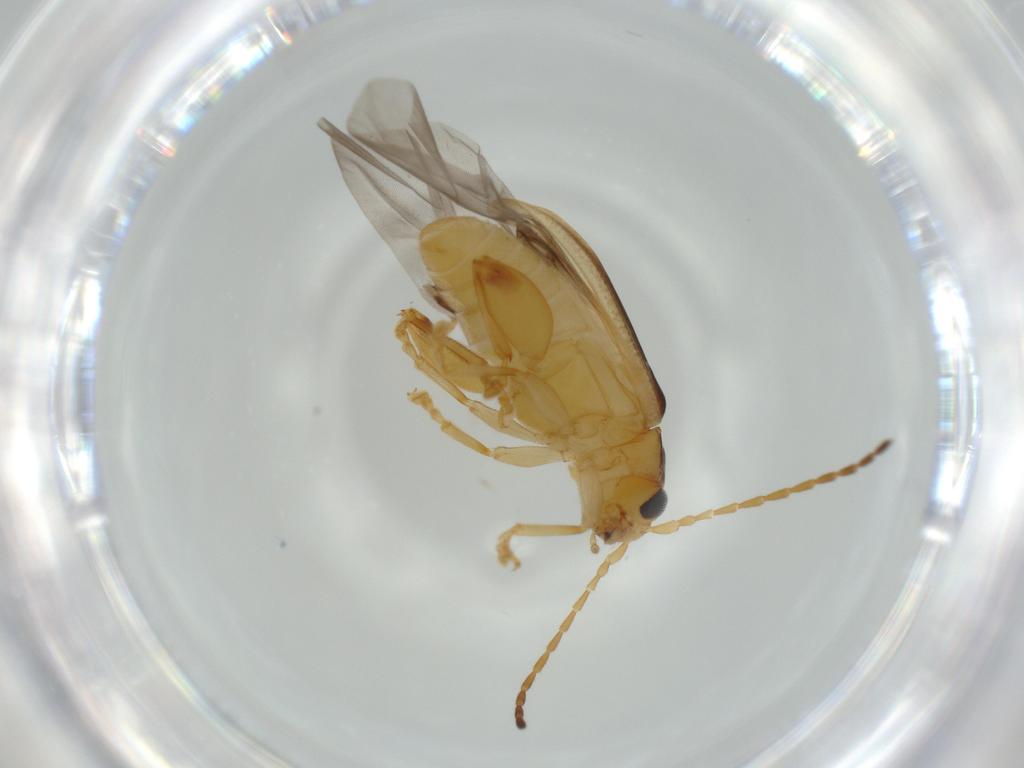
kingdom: Animalia
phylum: Arthropoda
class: Insecta
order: Coleoptera
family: Chrysomelidae
